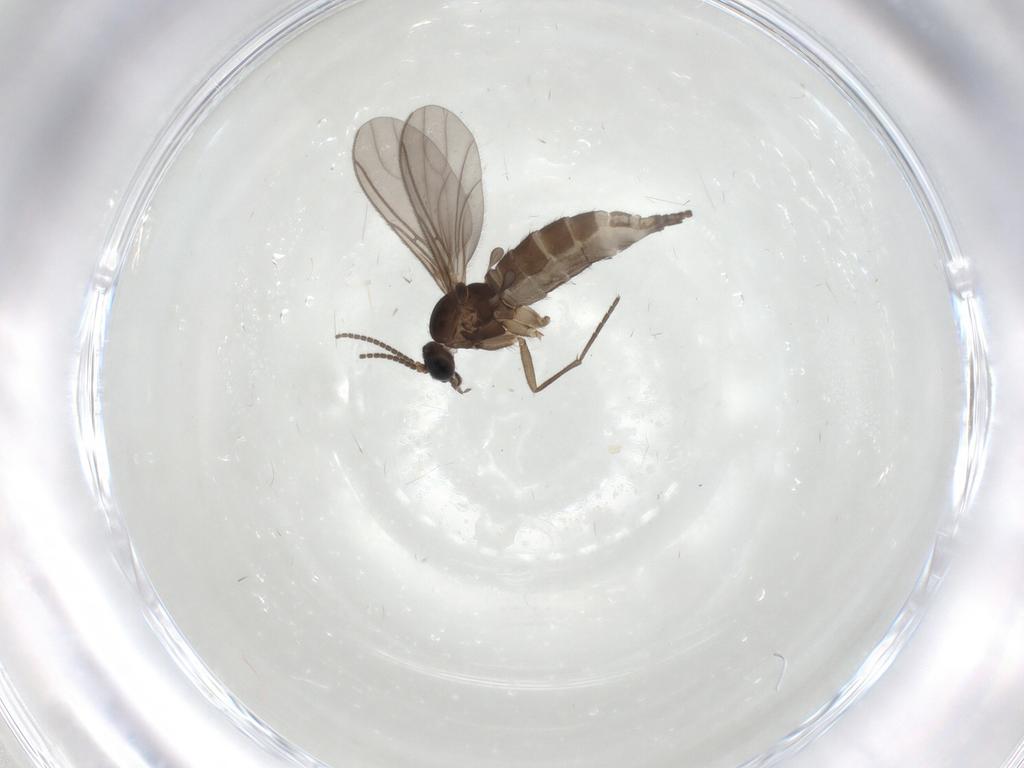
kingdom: Animalia
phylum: Arthropoda
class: Insecta
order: Diptera
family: Sciaridae
